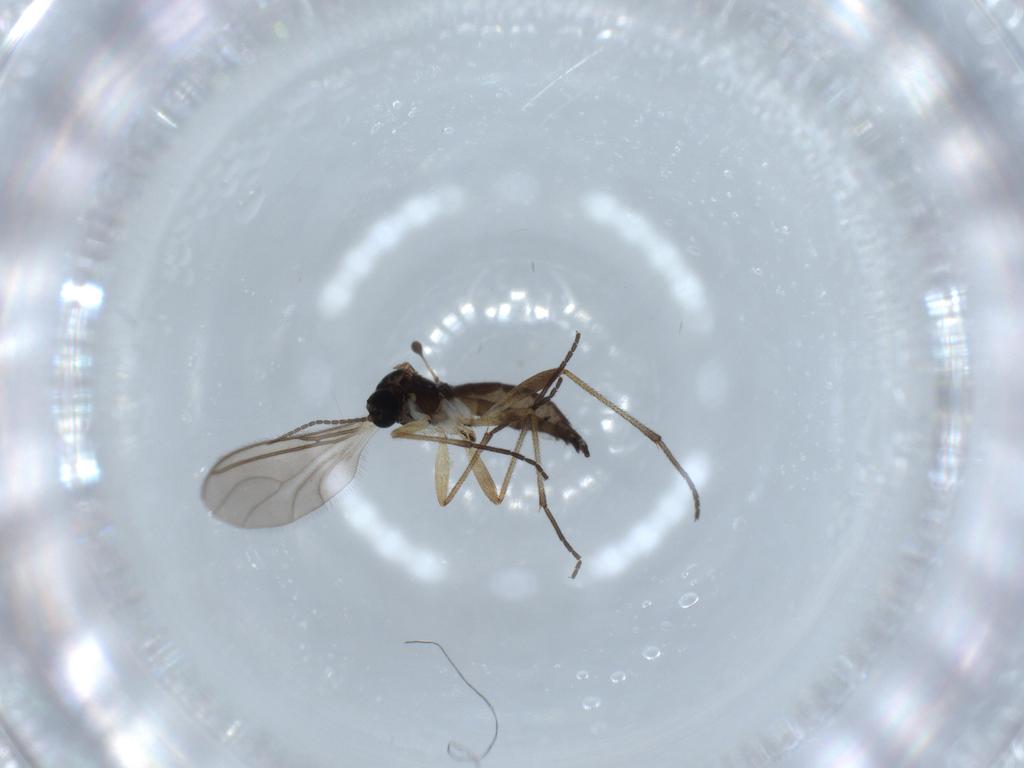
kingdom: Animalia
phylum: Arthropoda
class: Insecta
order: Diptera
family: Sciaridae
